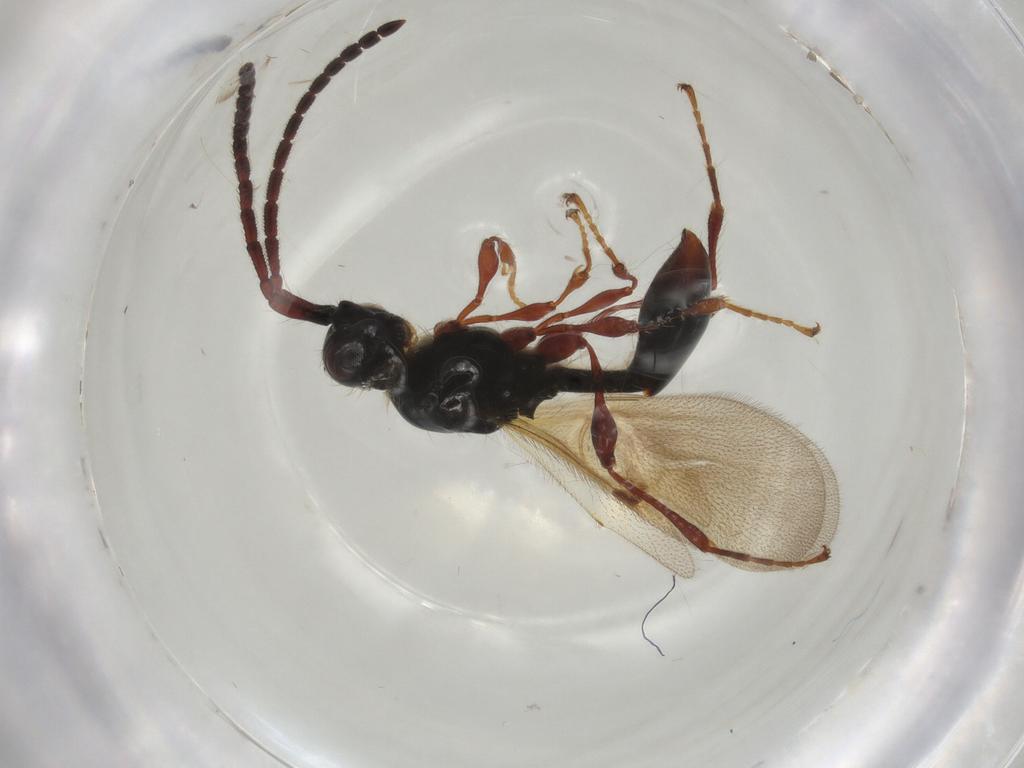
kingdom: Animalia
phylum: Arthropoda
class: Insecta
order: Hymenoptera
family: Diapriidae
